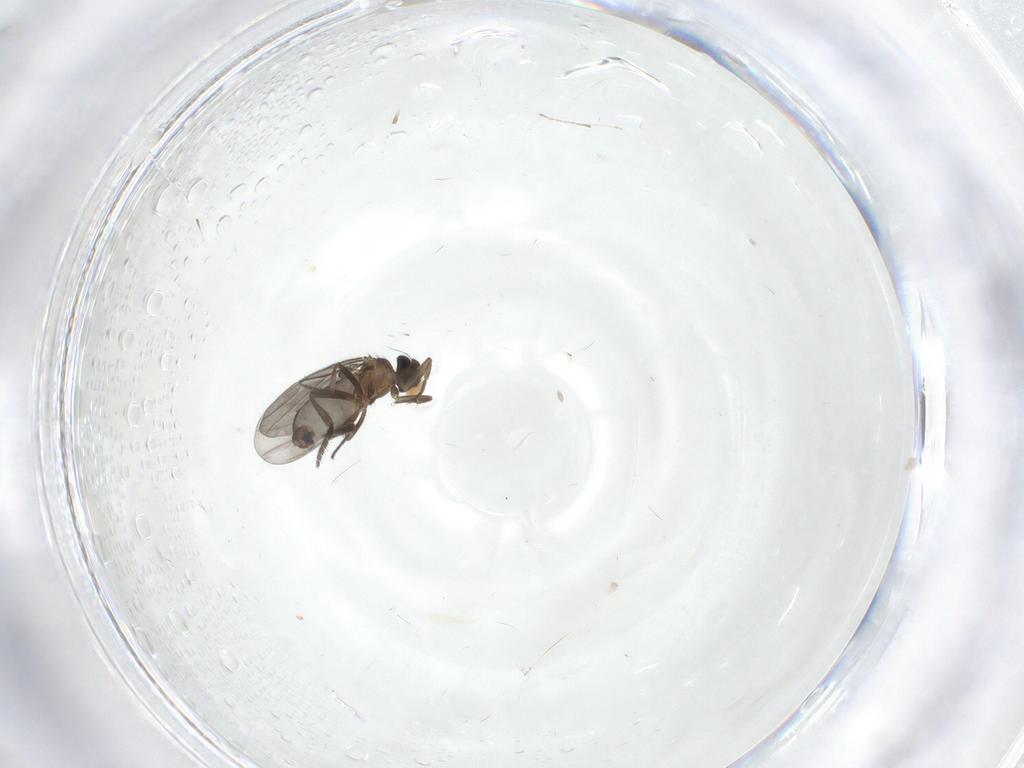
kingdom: Animalia
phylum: Arthropoda
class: Insecta
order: Diptera
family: Phoridae
